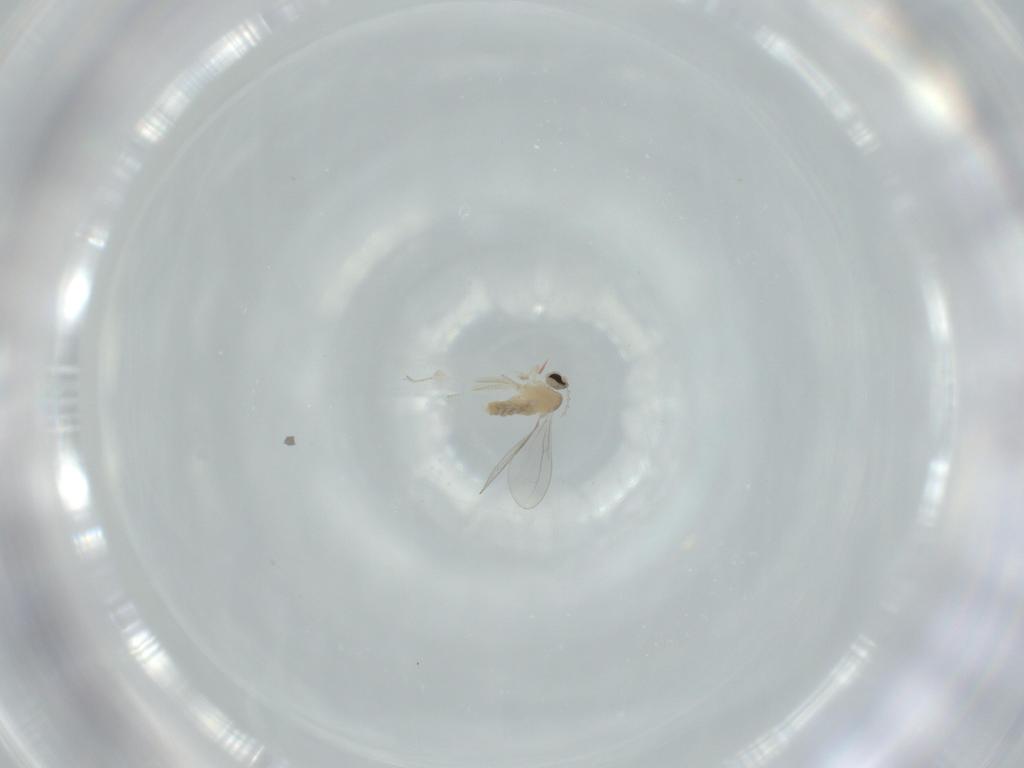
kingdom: Animalia
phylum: Arthropoda
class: Insecta
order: Diptera
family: Cecidomyiidae
